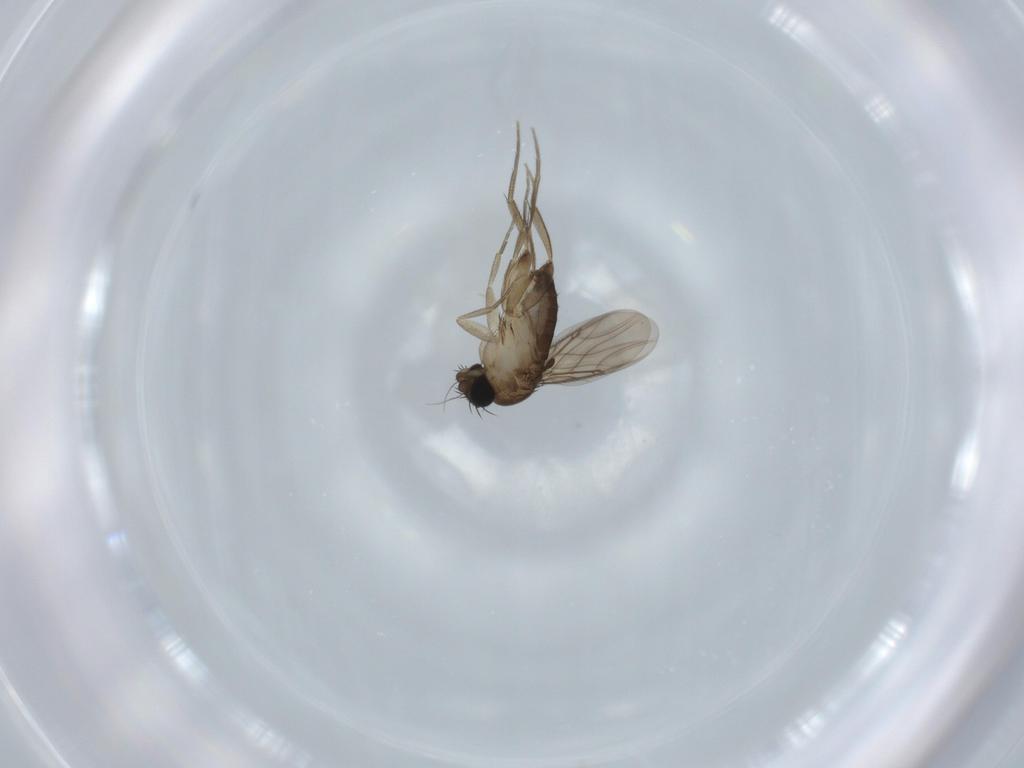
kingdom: Animalia
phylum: Arthropoda
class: Insecta
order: Diptera
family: Phoridae
